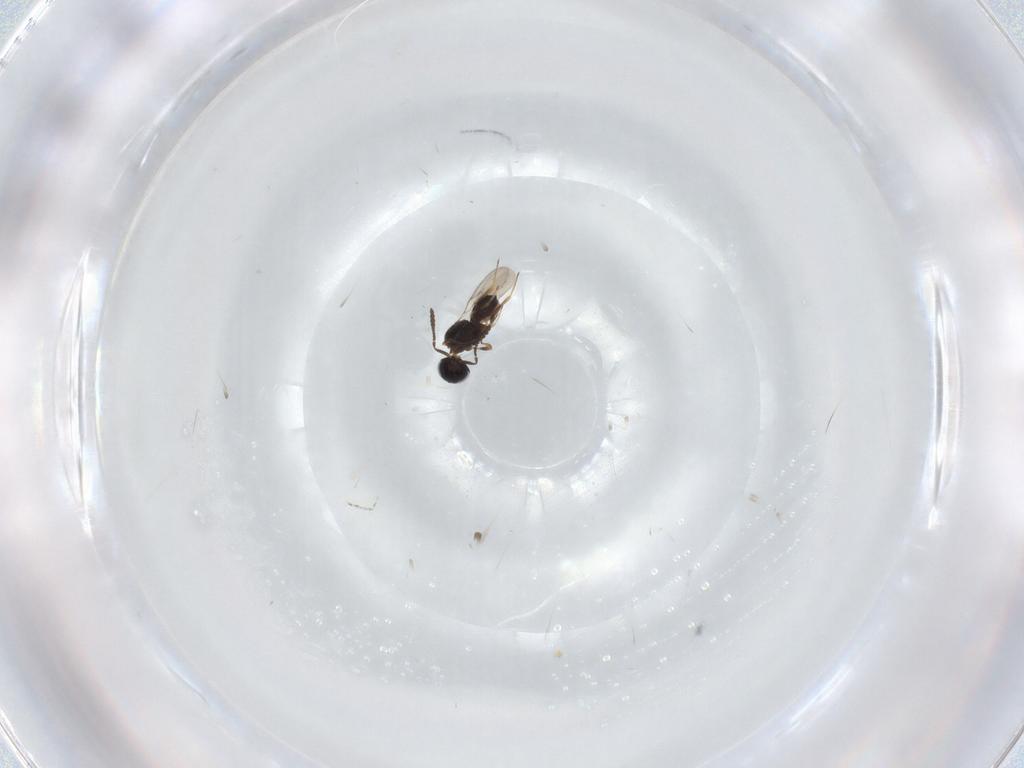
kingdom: Animalia
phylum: Arthropoda
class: Insecta
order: Hymenoptera
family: Scelionidae
